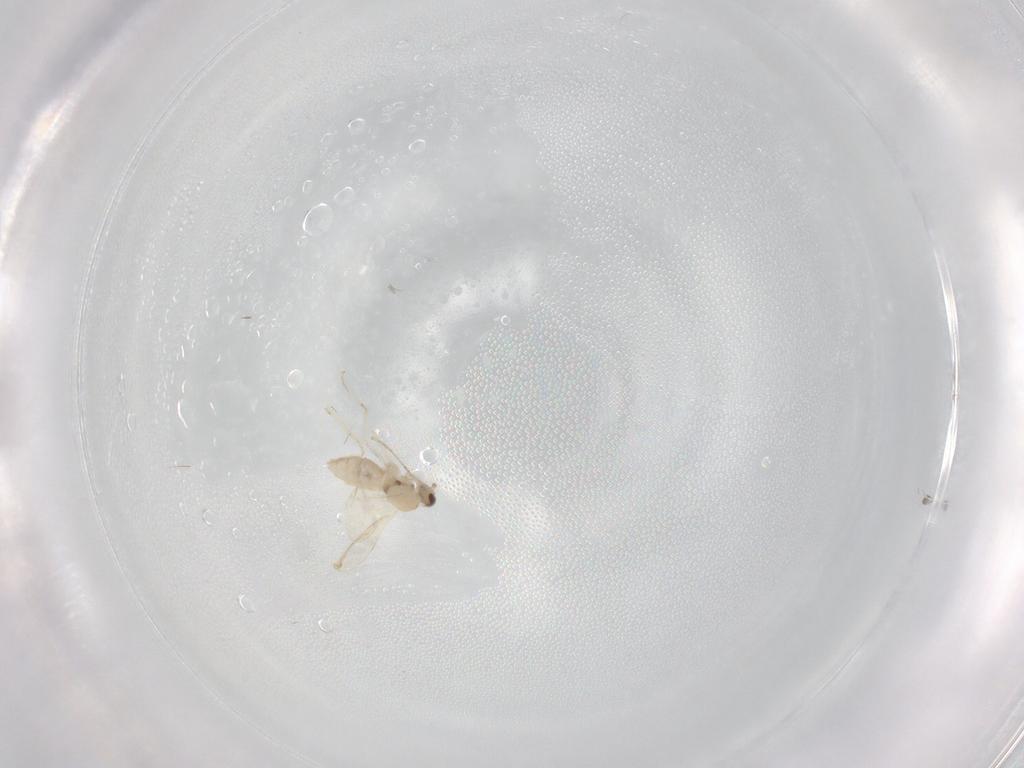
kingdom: Animalia
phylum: Arthropoda
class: Insecta
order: Diptera
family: Cecidomyiidae
